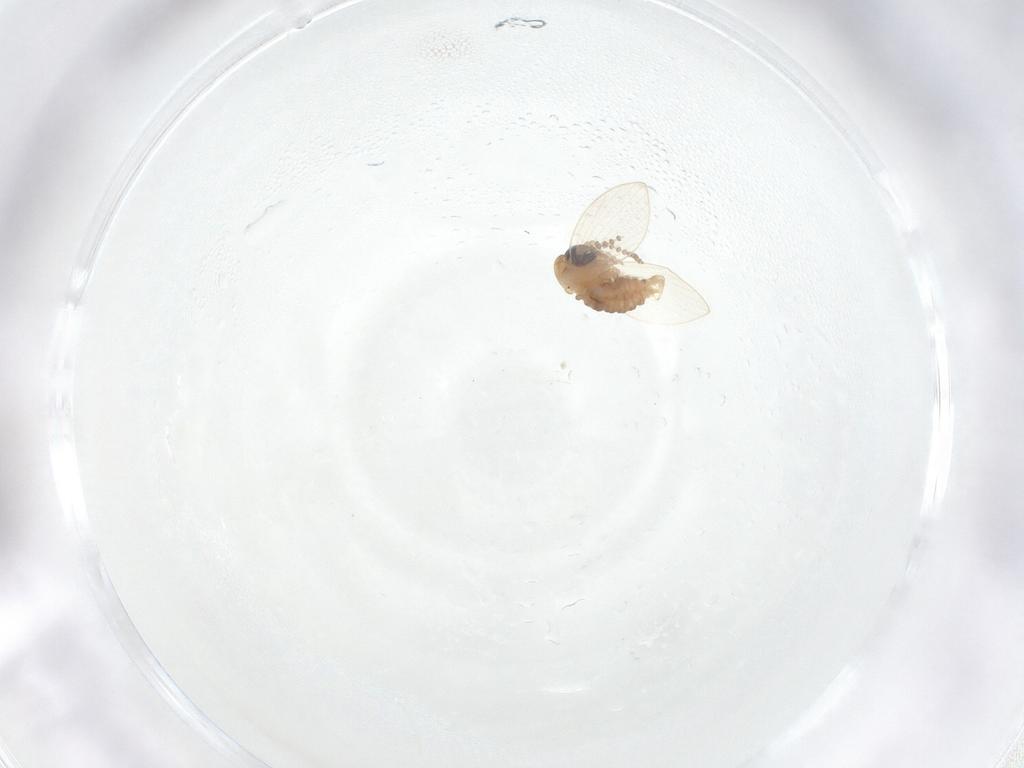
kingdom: Animalia
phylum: Arthropoda
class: Insecta
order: Diptera
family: Psychodidae
